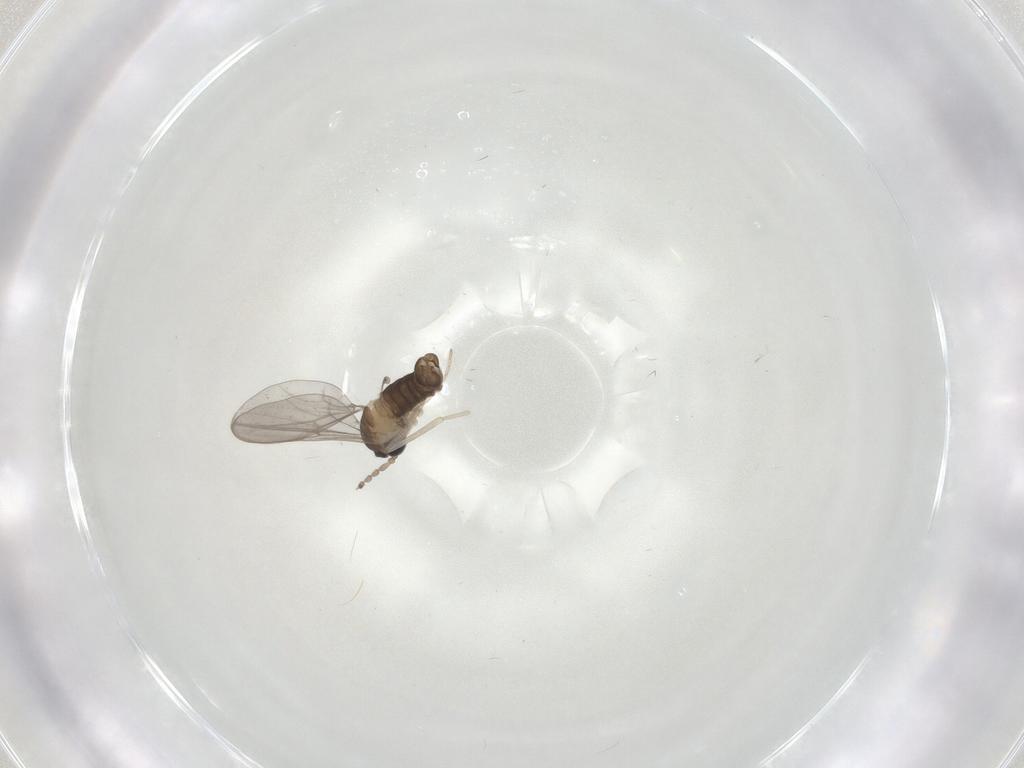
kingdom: Animalia
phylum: Arthropoda
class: Insecta
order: Diptera
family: Cecidomyiidae
